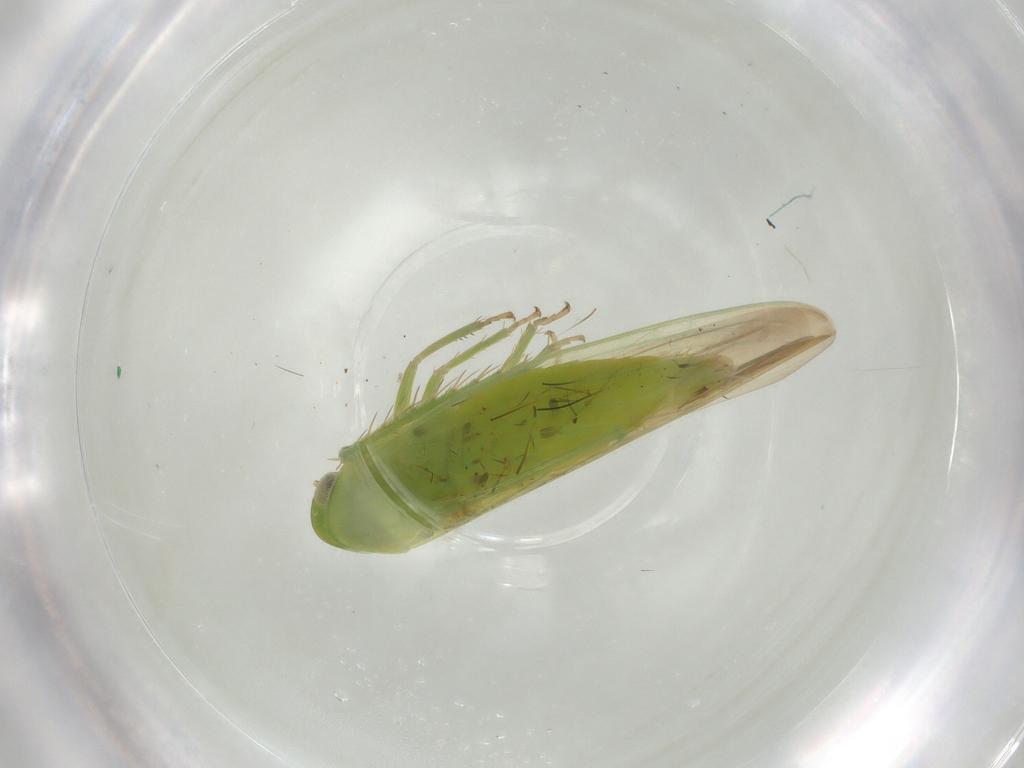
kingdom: Animalia
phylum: Arthropoda
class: Insecta
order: Hemiptera
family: Cicadellidae
